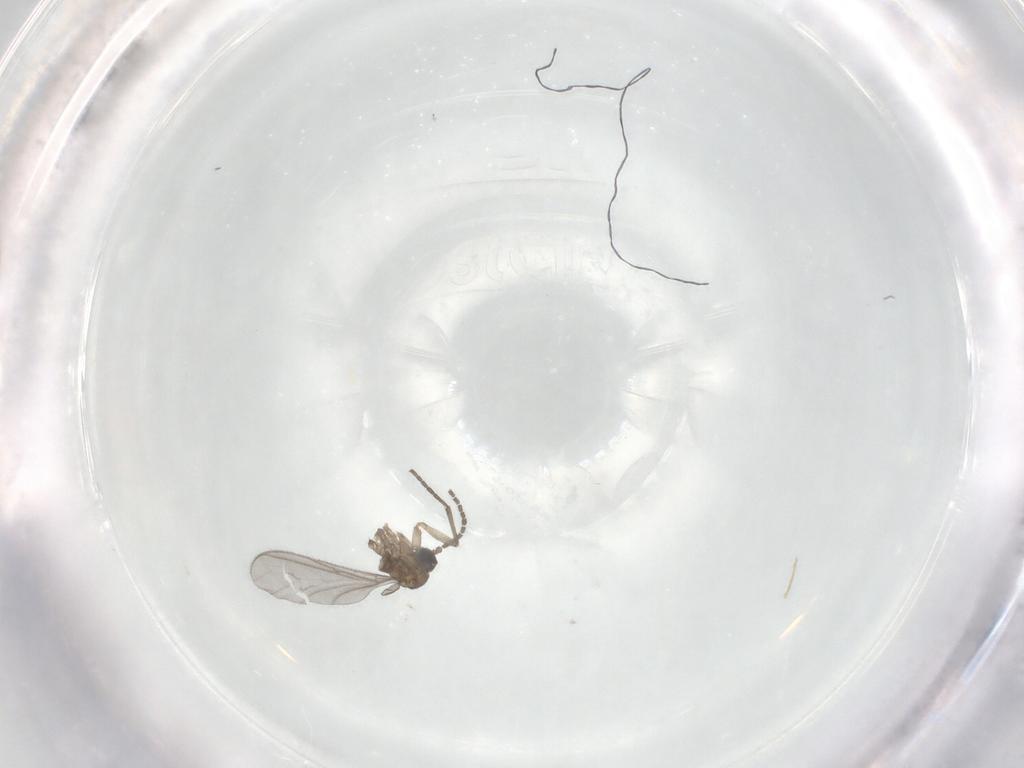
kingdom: Animalia
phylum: Arthropoda
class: Insecta
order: Diptera
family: Sciaridae
